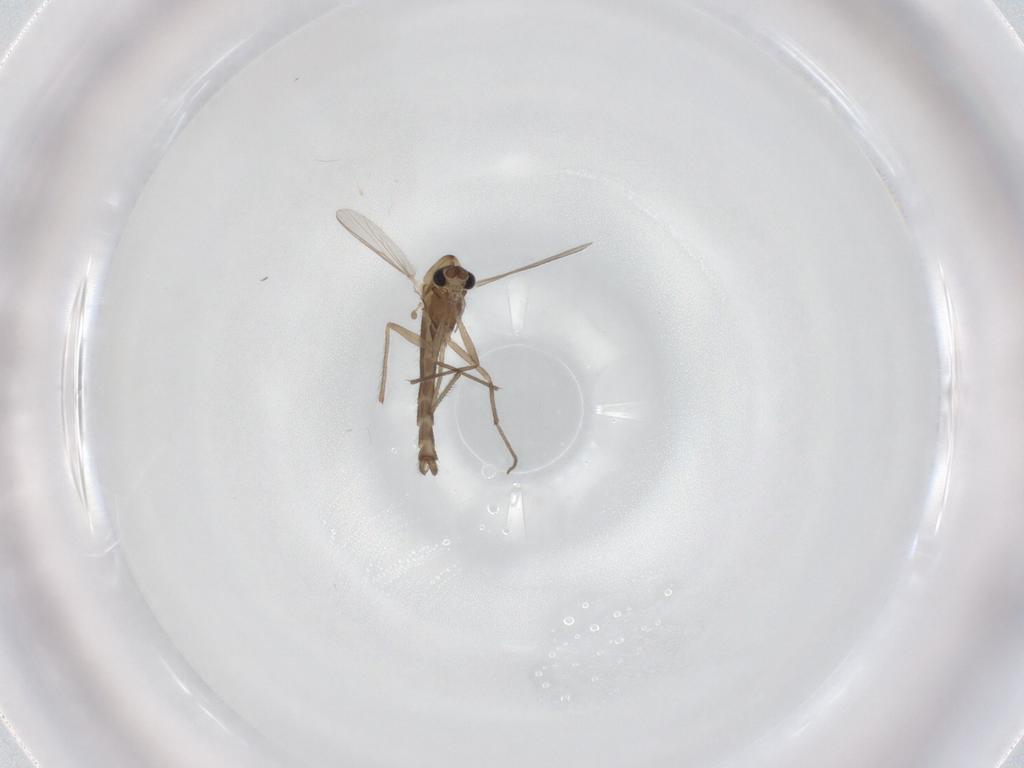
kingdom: Animalia
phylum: Arthropoda
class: Insecta
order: Diptera
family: Chironomidae
